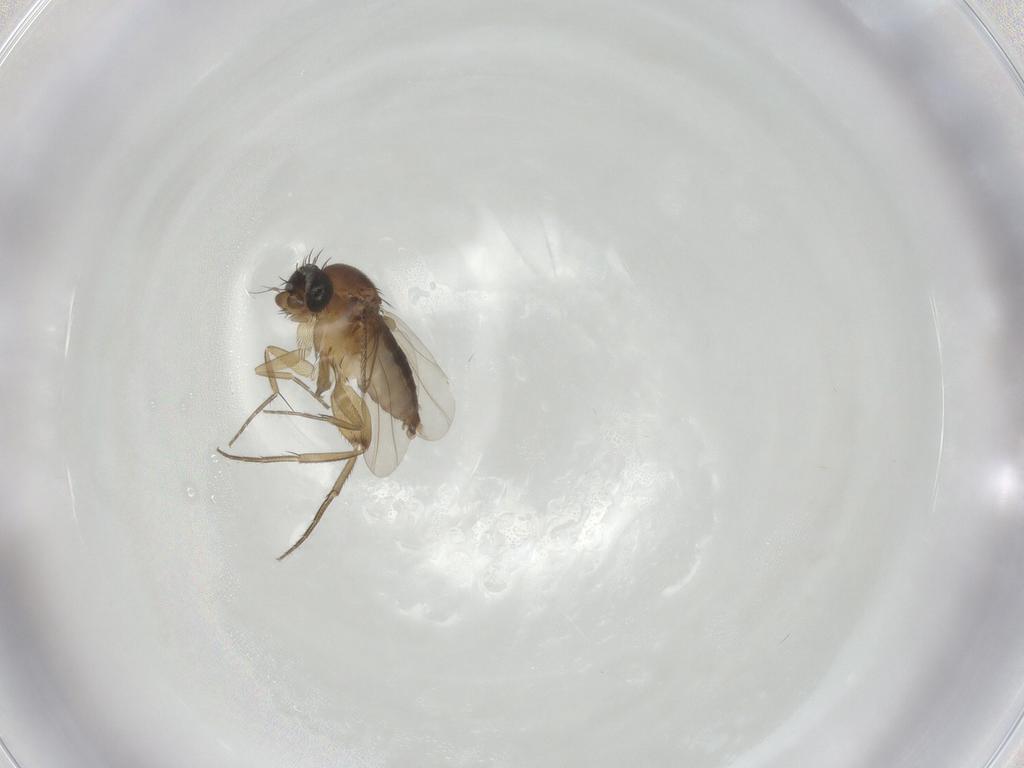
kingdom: Animalia
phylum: Arthropoda
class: Insecta
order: Diptera
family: Phoridae
